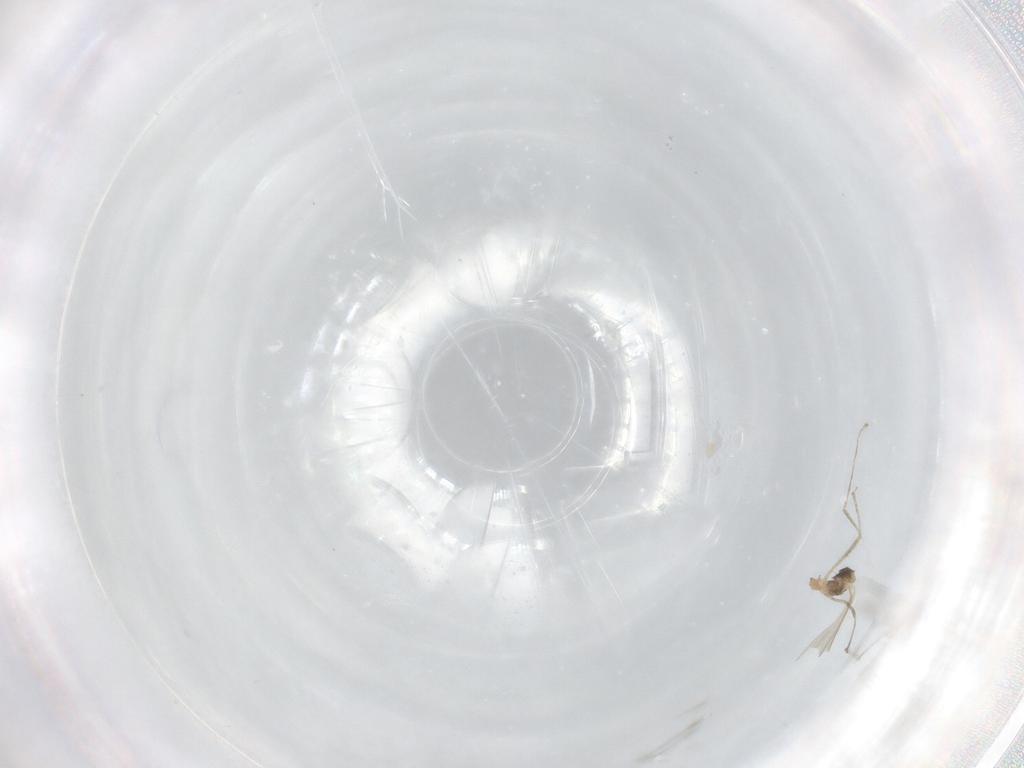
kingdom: Animalia
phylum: Arthropoda
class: Insecta
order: Diptera
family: Cecidomyiidae
